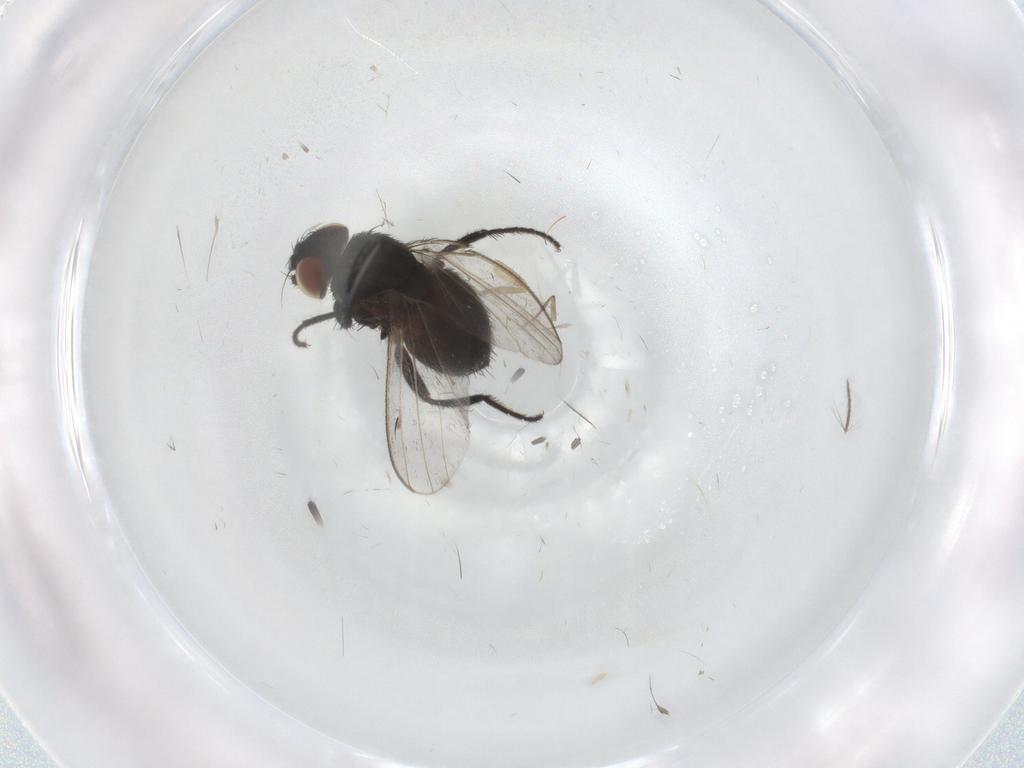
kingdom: Animalia
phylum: Arthropoda
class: Insecta
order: Diptera
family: Milichiidae
